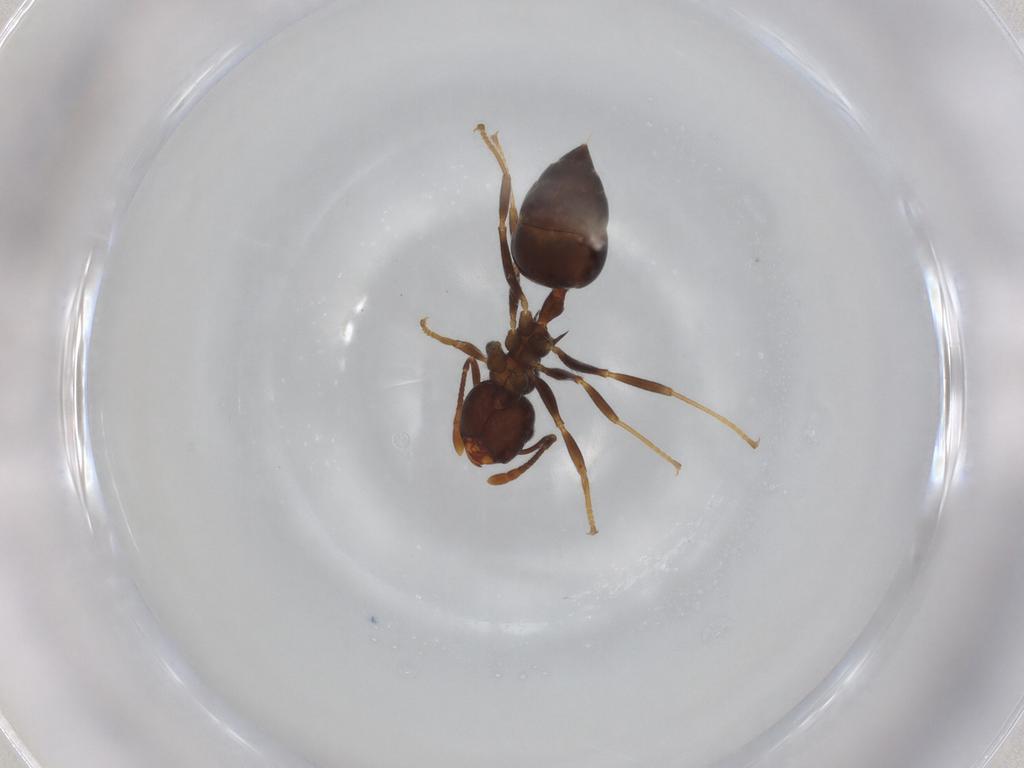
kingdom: Animalia
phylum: Arthropoda
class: Insecta
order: Hymenoptera
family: Formicidae
